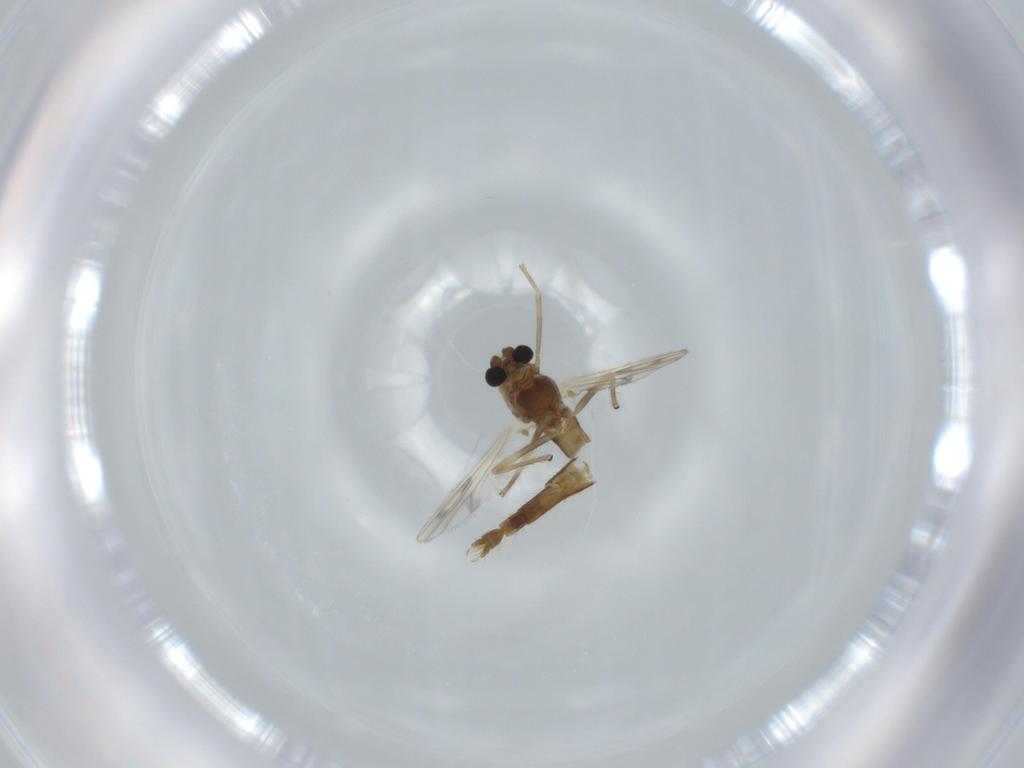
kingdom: Animalia
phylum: Arthropoda
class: Insecta
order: Diptera
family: Chironomidae
